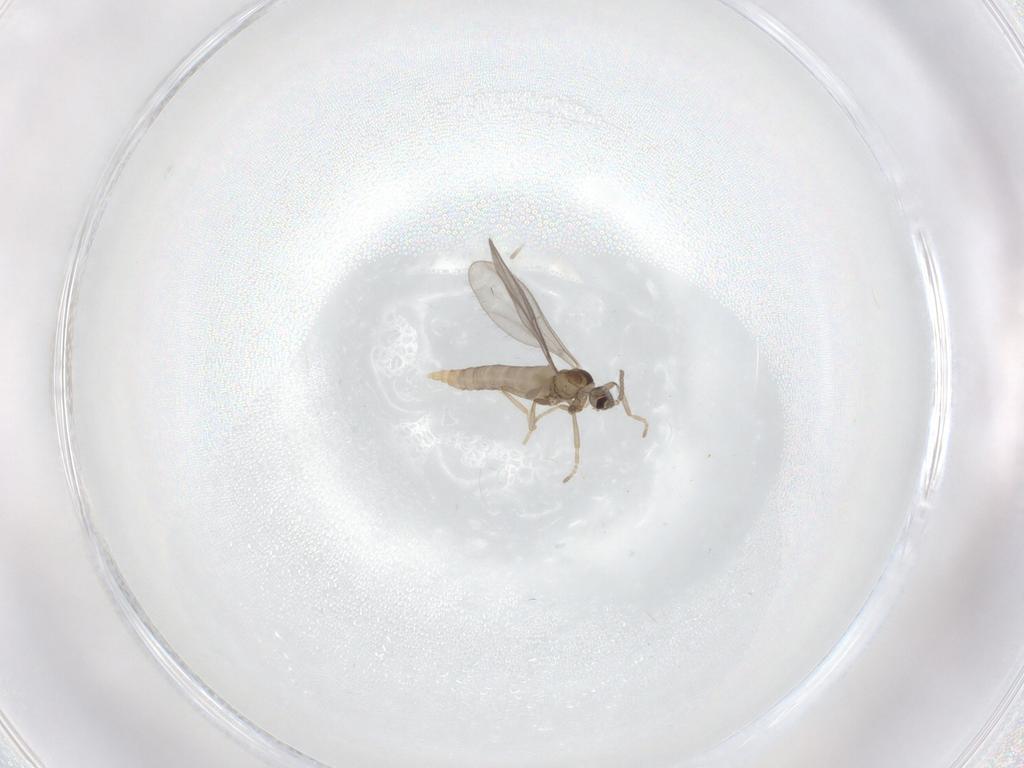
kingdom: Animalia
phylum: Arthropoda
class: Insecta
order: Diptera
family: Cecidomyiidae
